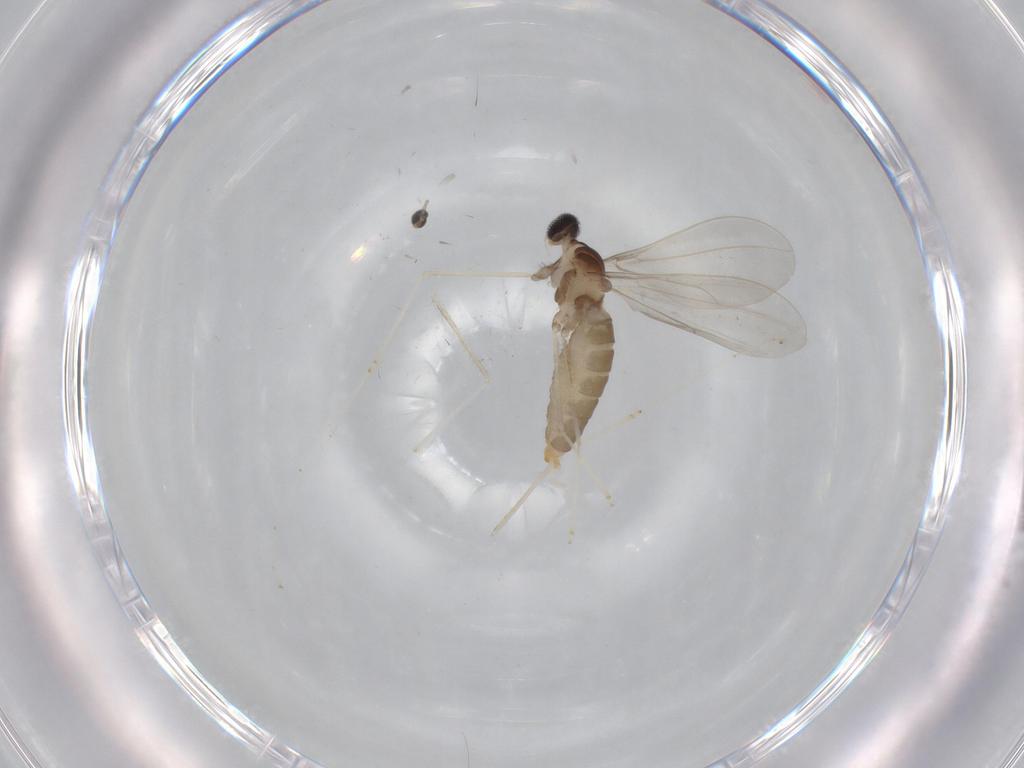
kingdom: Animalia
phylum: Arthropoda
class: Insecta
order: Diptera
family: Cecidomyiidae
